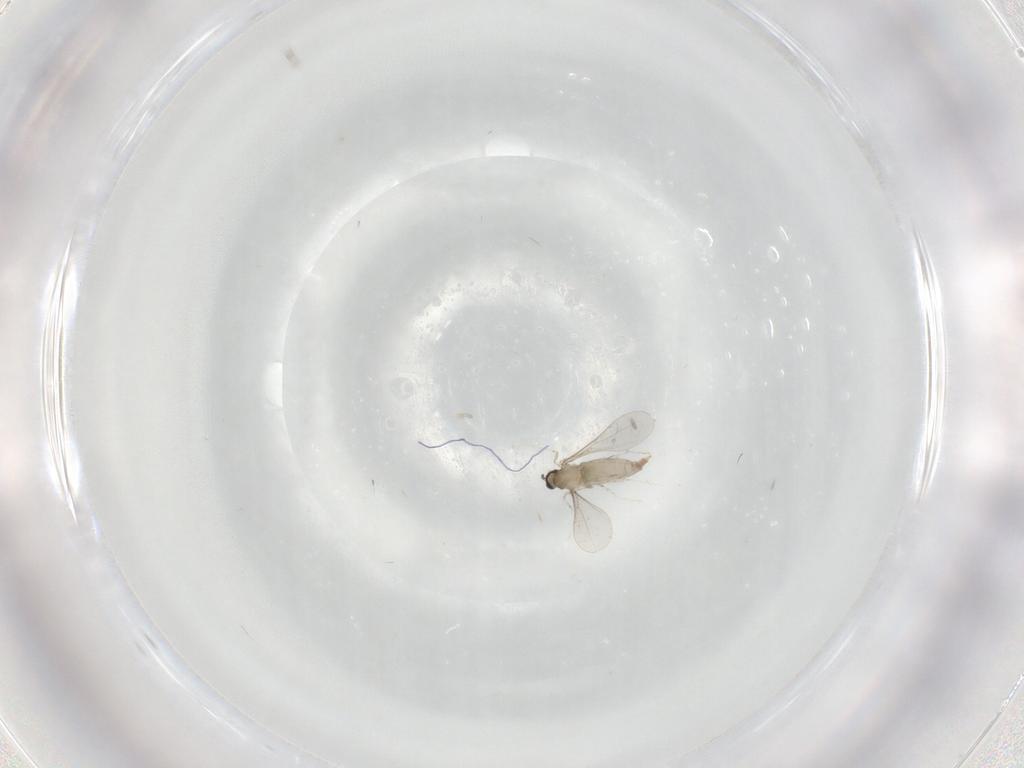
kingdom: Animalia
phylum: Arthropoda
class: Insecta
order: Diptera
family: Cecidomyiidae
